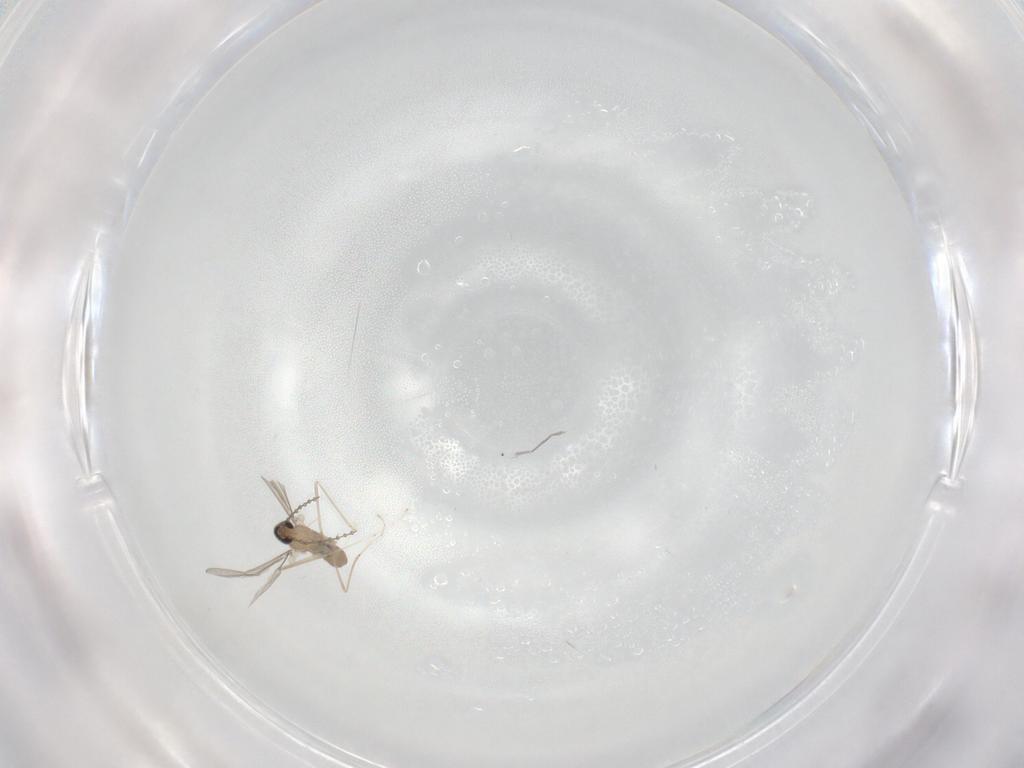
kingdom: Animalia
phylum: Arthropoda
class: Insecta
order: Diptera
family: Cecidomyiidae
